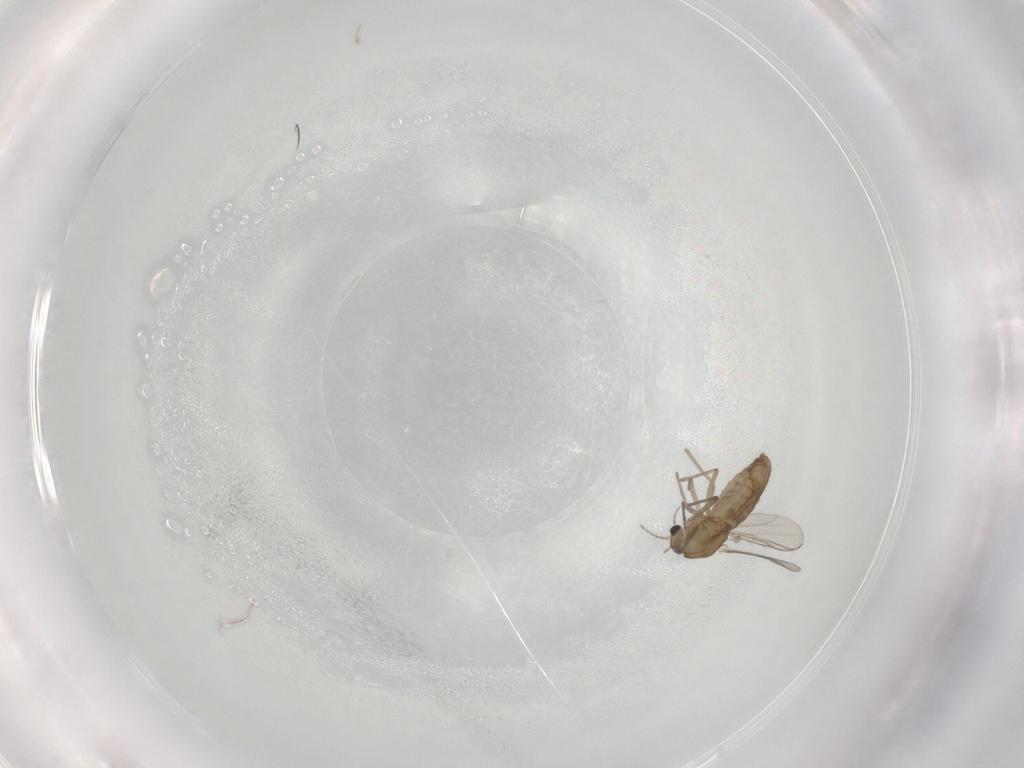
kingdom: Animalia
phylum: Arthropoda
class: Insecta
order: Diptera
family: Chironomidae
